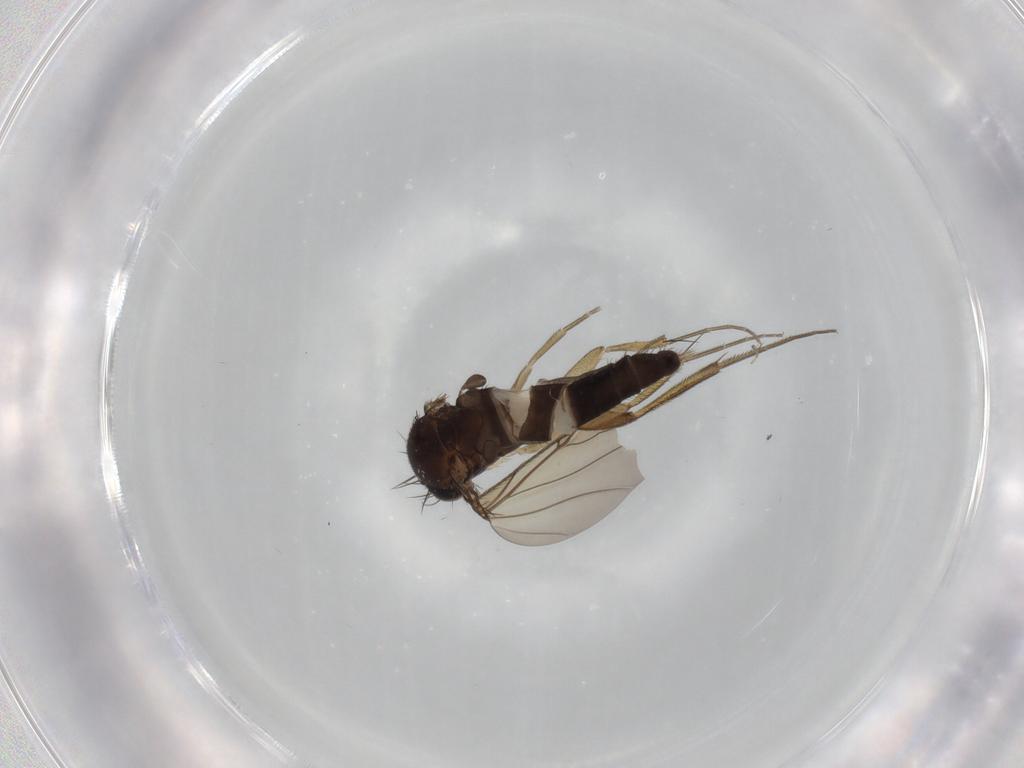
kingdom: Animalia
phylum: Arthropoda
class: Insecta
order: Diptera
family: Phoridae
